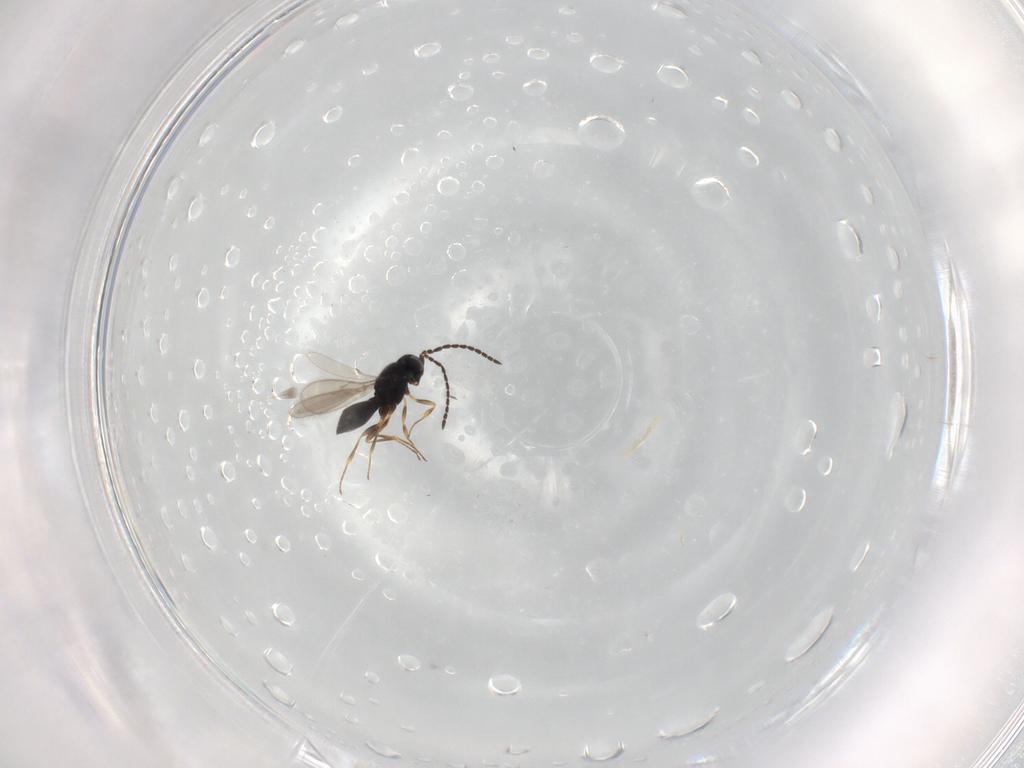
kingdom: Animalia
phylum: Arthropoda
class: Insecta
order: Hymenoptera
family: Scelionidae
